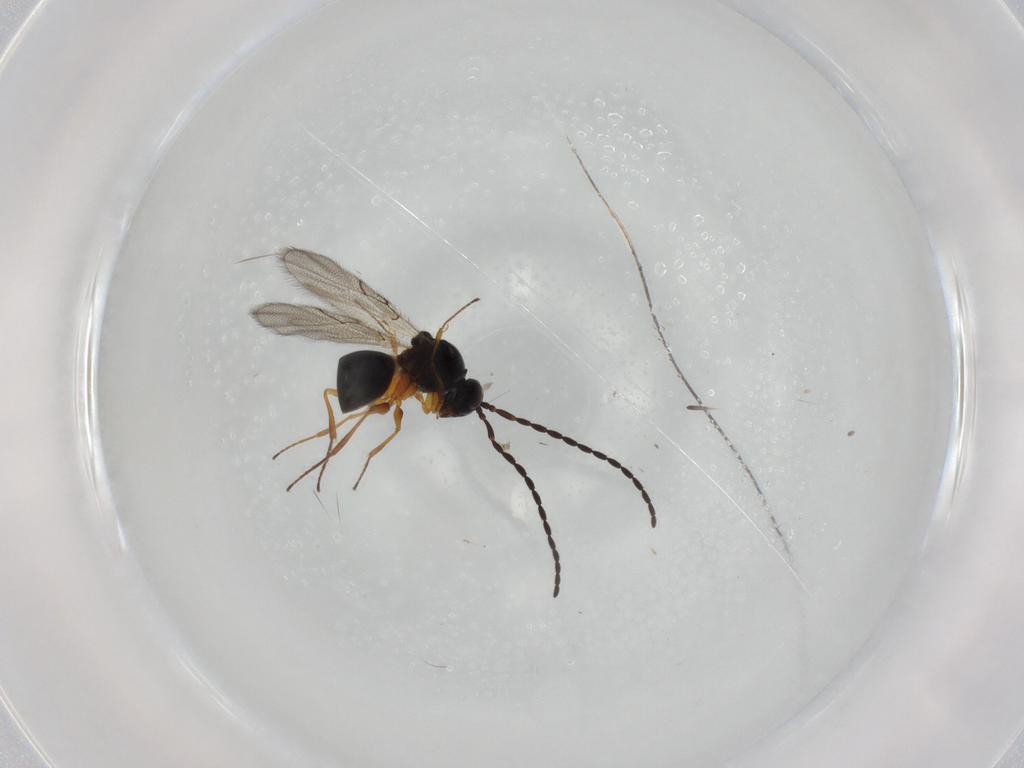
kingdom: Animalia
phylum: Arthropoda
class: Insecta
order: Hymenoptera
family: Figitidae
